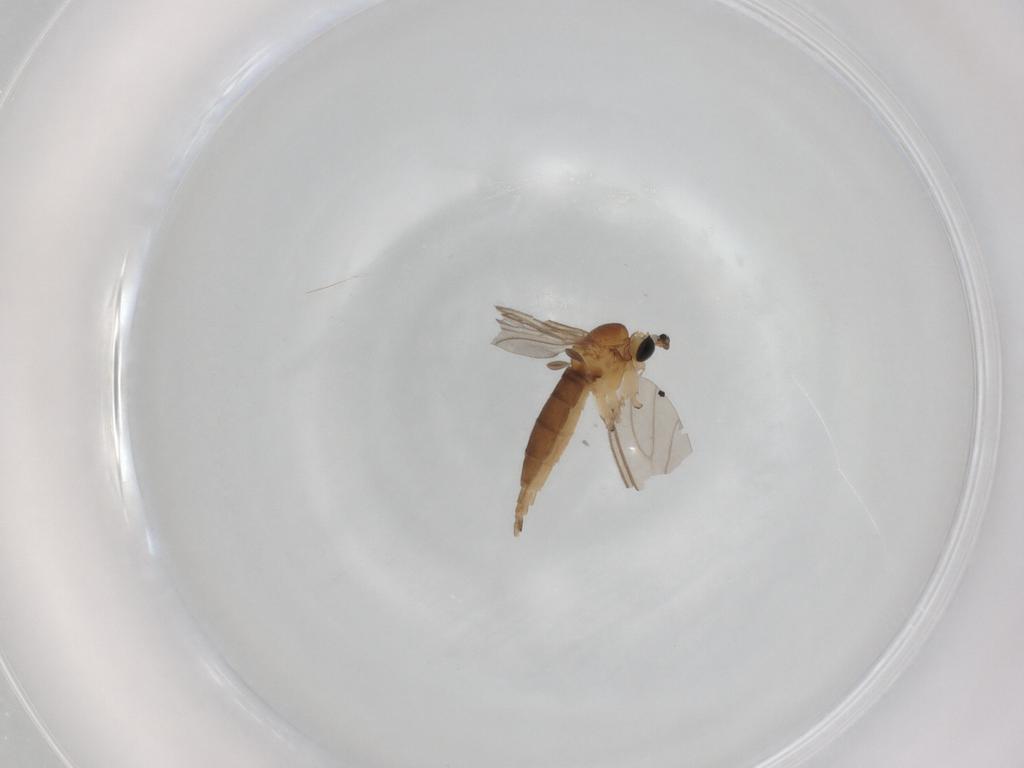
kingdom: Animalia
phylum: Arthropoda
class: Insecta
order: Diptera
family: Sciaridae
